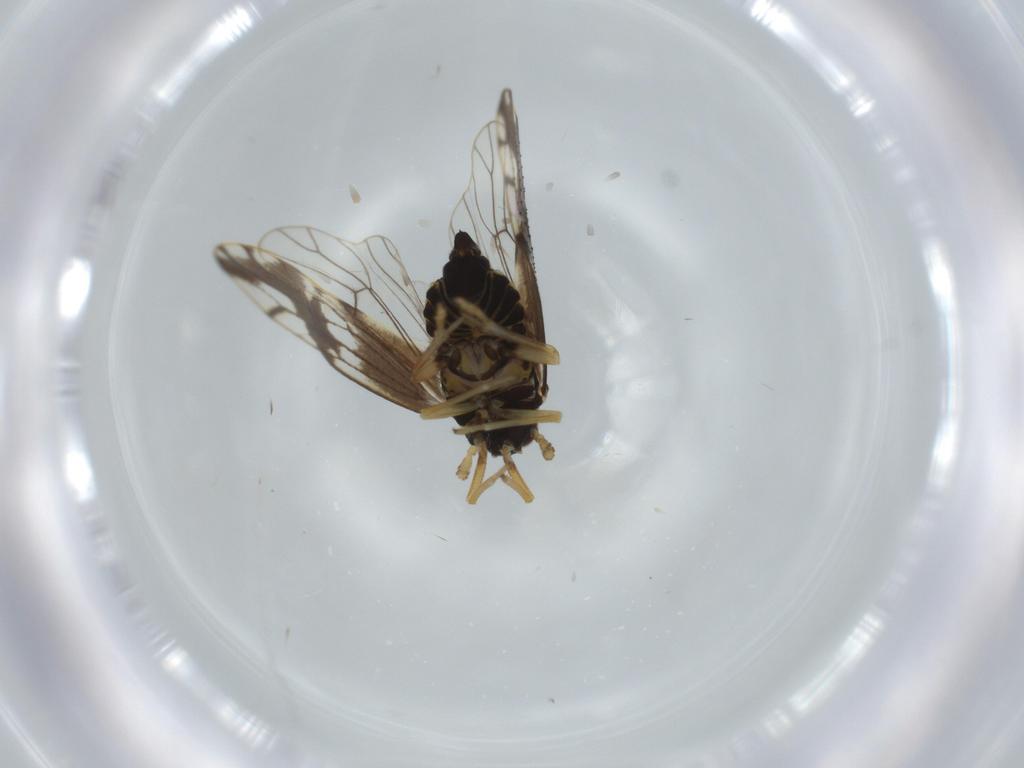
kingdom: Animalia
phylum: Arthropoda
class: Insecta
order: Hemiptera
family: Delphacidae
